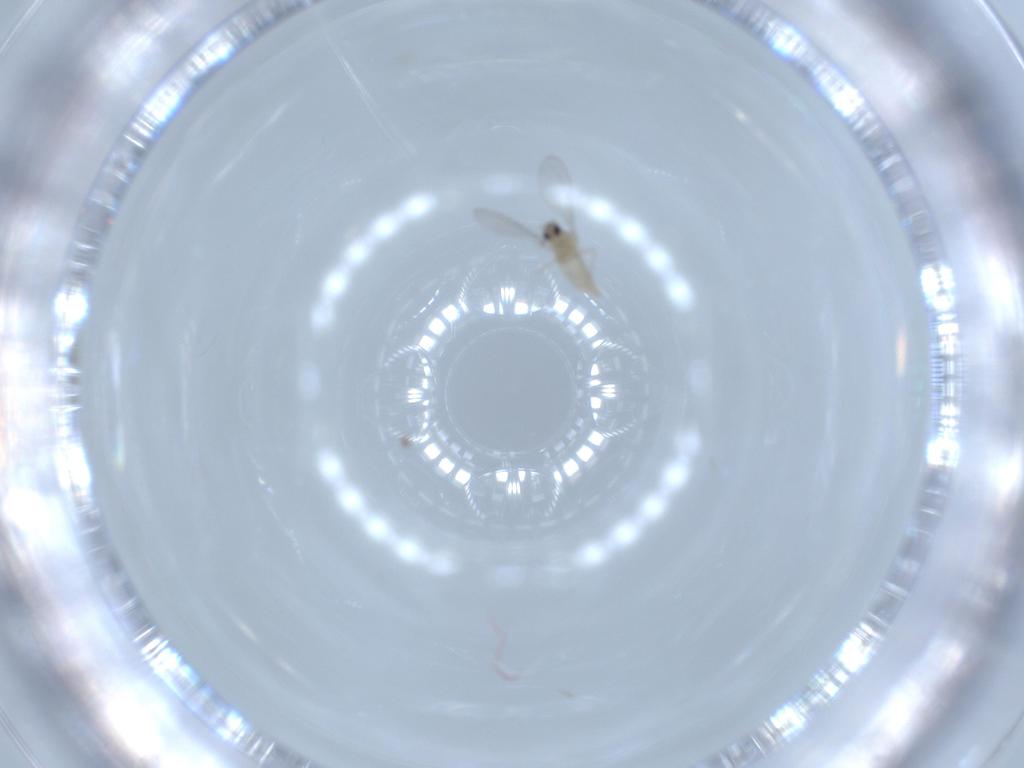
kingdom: Animalia
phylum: Arthropoda
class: Insecta
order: Diptera
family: Cecidomyiidae
